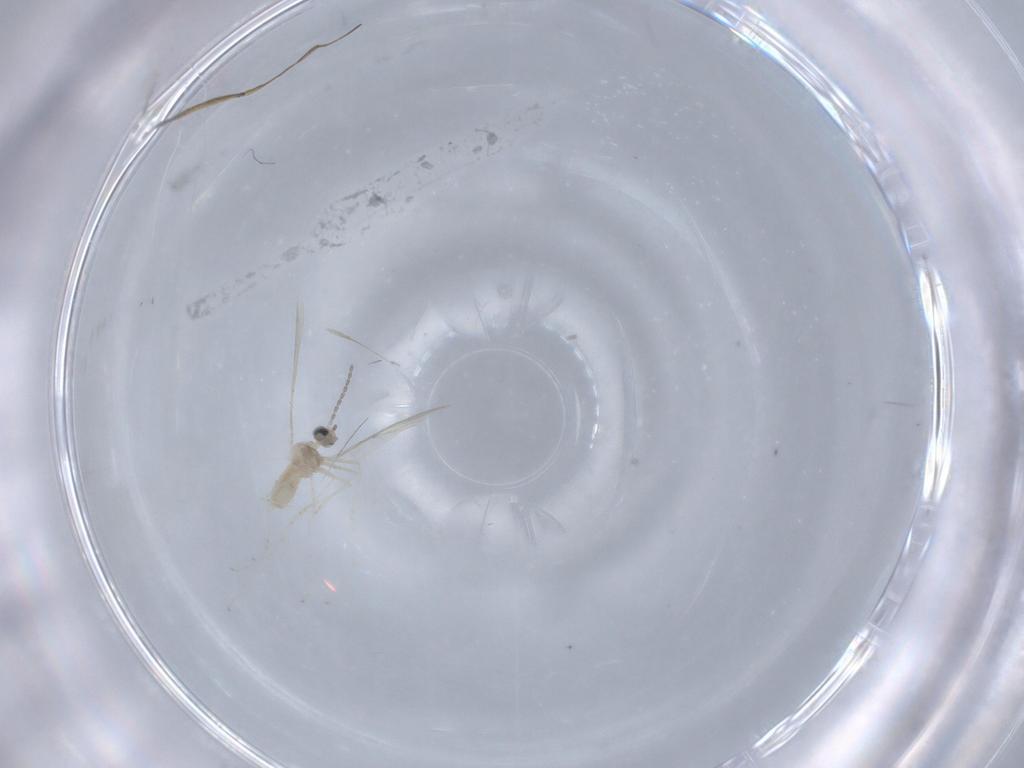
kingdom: Animalia
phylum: Arthropoda
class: Insecta
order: Diptera
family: Cecidomyiidae
